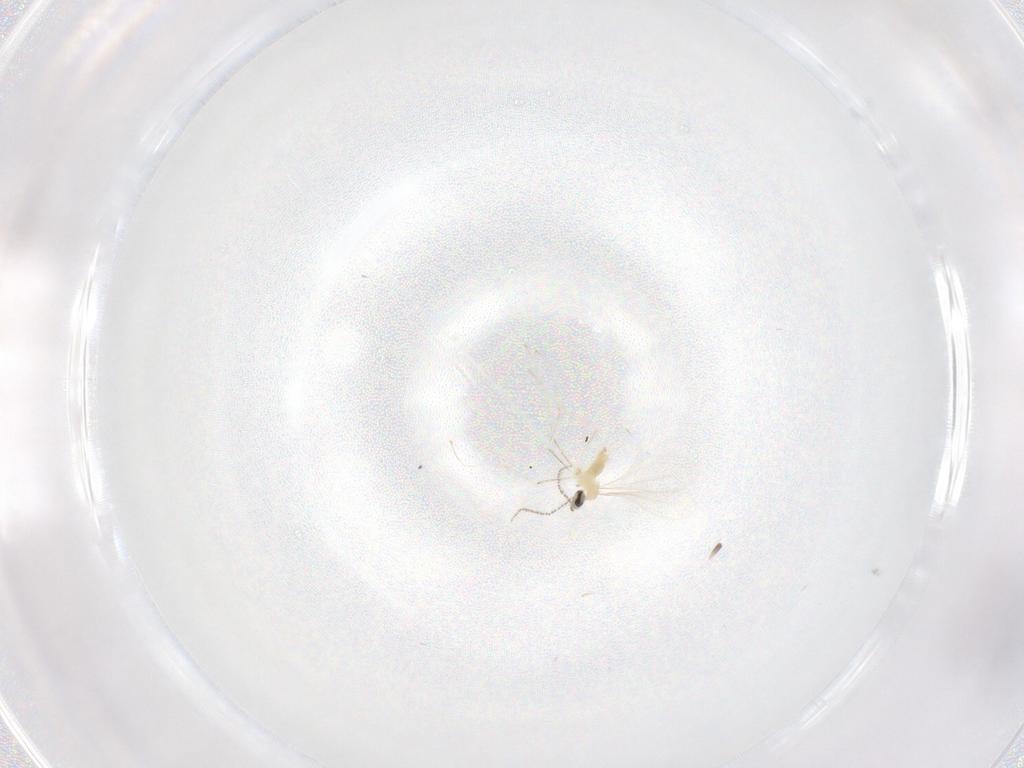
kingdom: Animalia
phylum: Arthropoda
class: Insecta
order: Diptera
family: Cecidomyiidae
